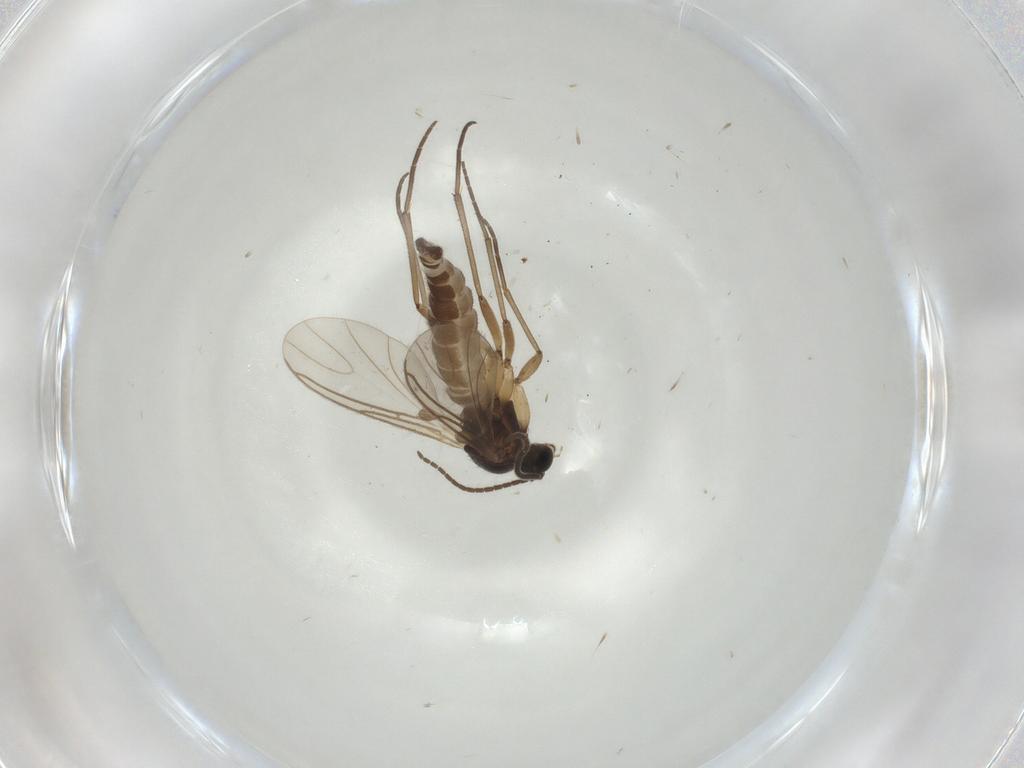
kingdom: Animalia
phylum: Arthropoda
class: Insecta
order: Diptera
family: Sciaridae
